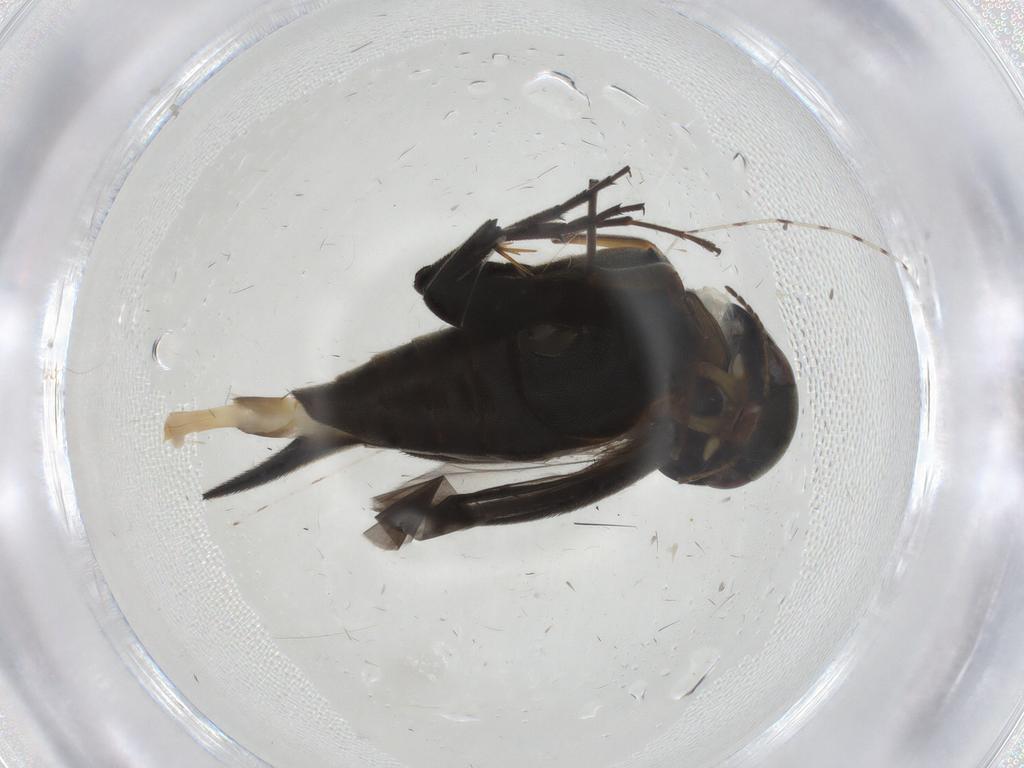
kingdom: Animalia
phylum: Arthropoda
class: Insecta
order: Coleoptera
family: Mordellidae
